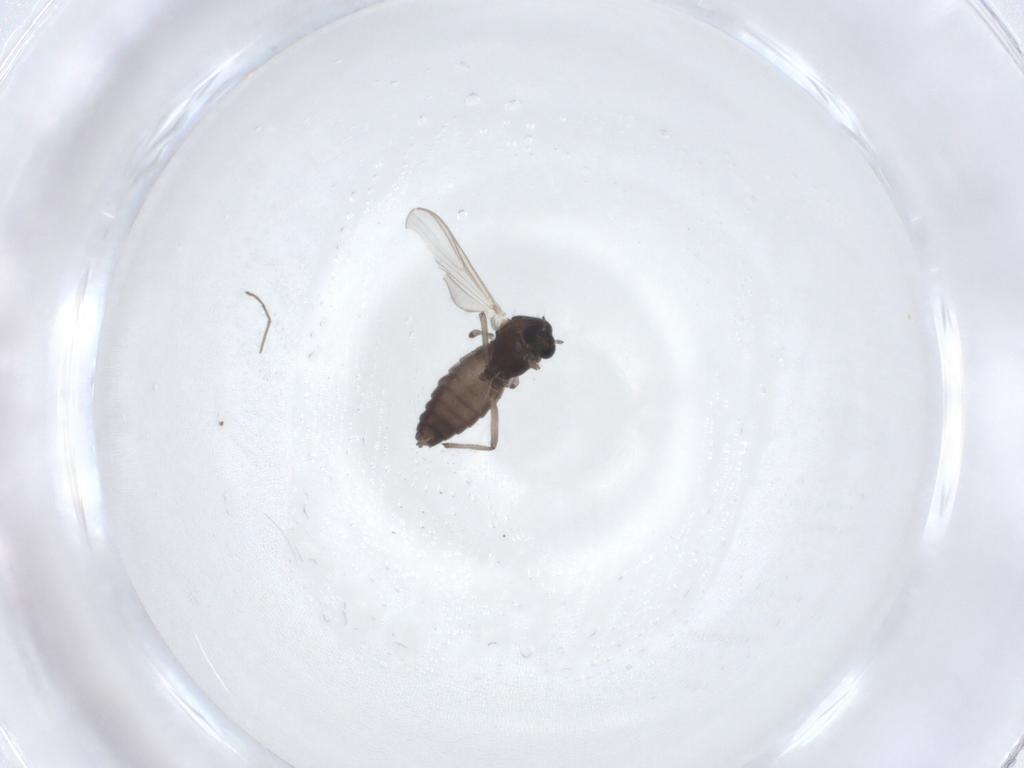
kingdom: Animalia
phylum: Arthropoda
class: Insecta
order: Diptera
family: Chironomidae
